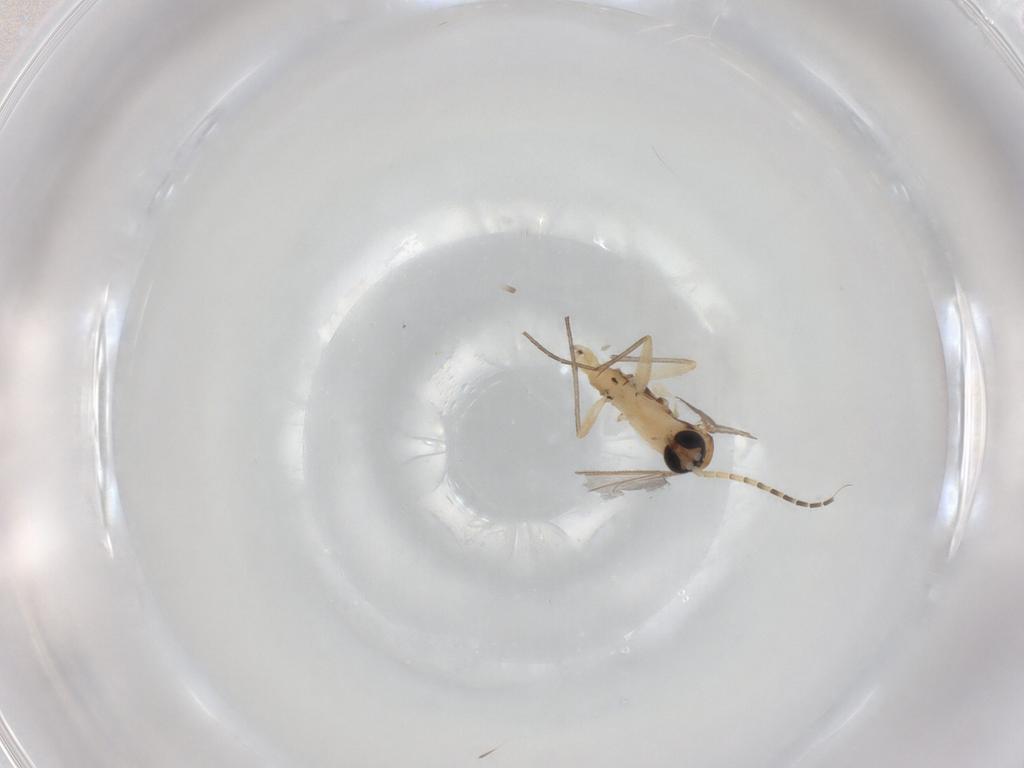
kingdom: Animalia
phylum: Arthropoda
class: Insecta
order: Diptera
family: Sciaridae
